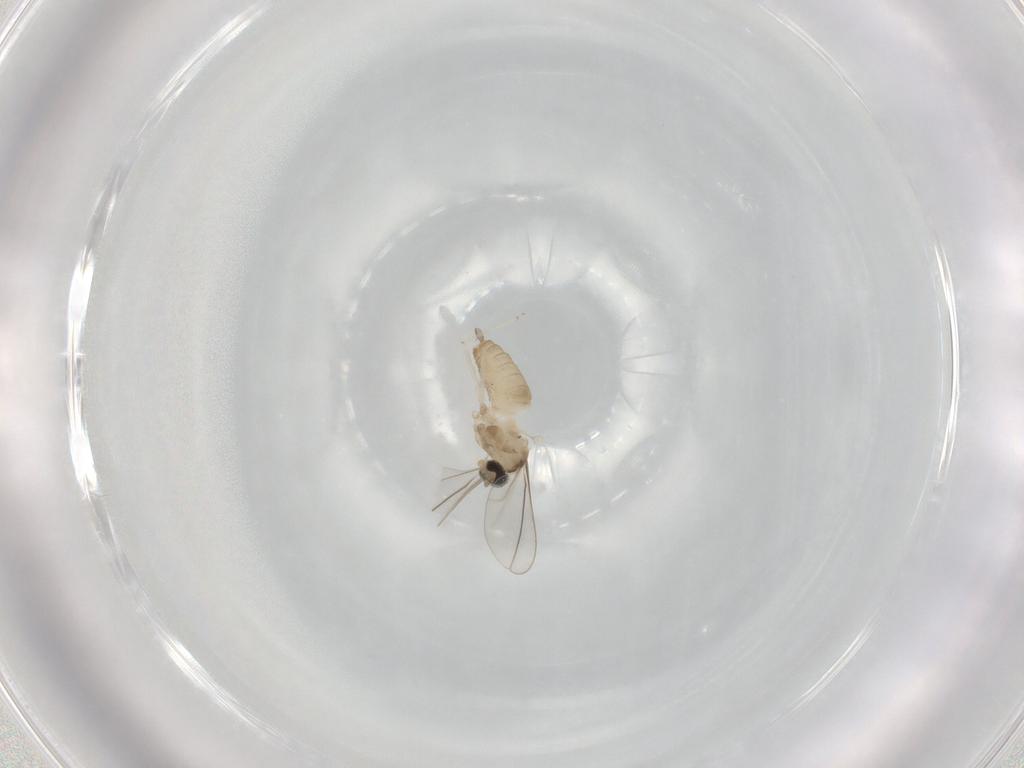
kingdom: Animalia
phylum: Arthropoda
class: Insecta
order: Diptera
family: Cecidomyiidae
